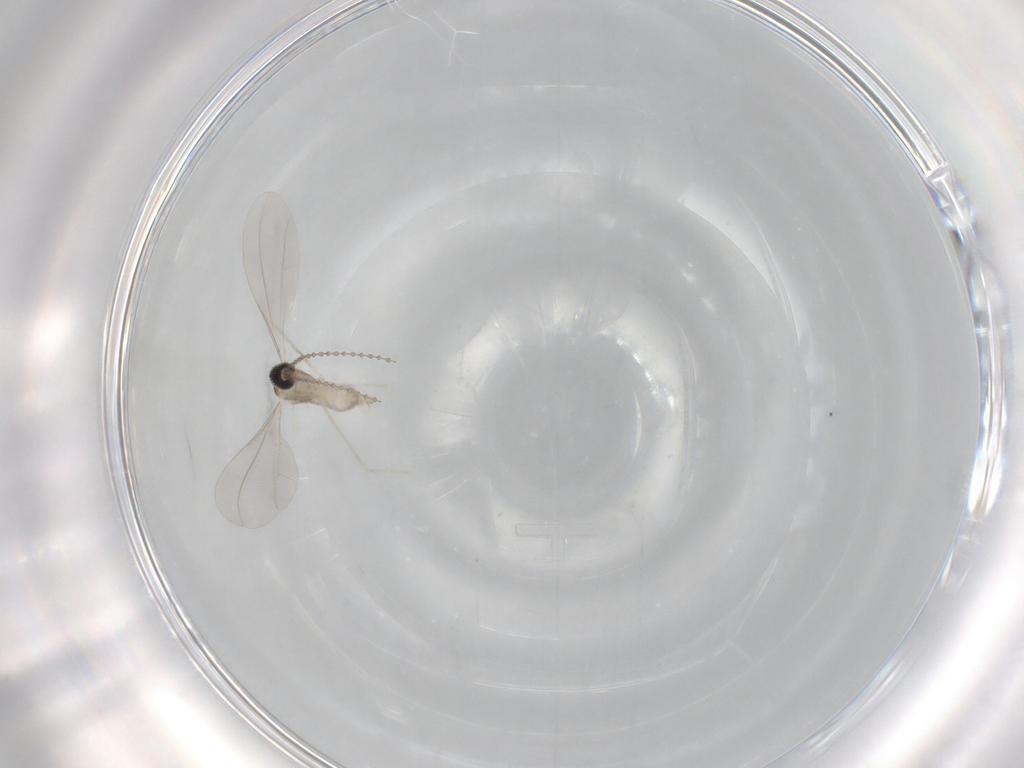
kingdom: Animalia
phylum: Arthropoda
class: Insecta
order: Diptera
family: Cecidomyiidae
